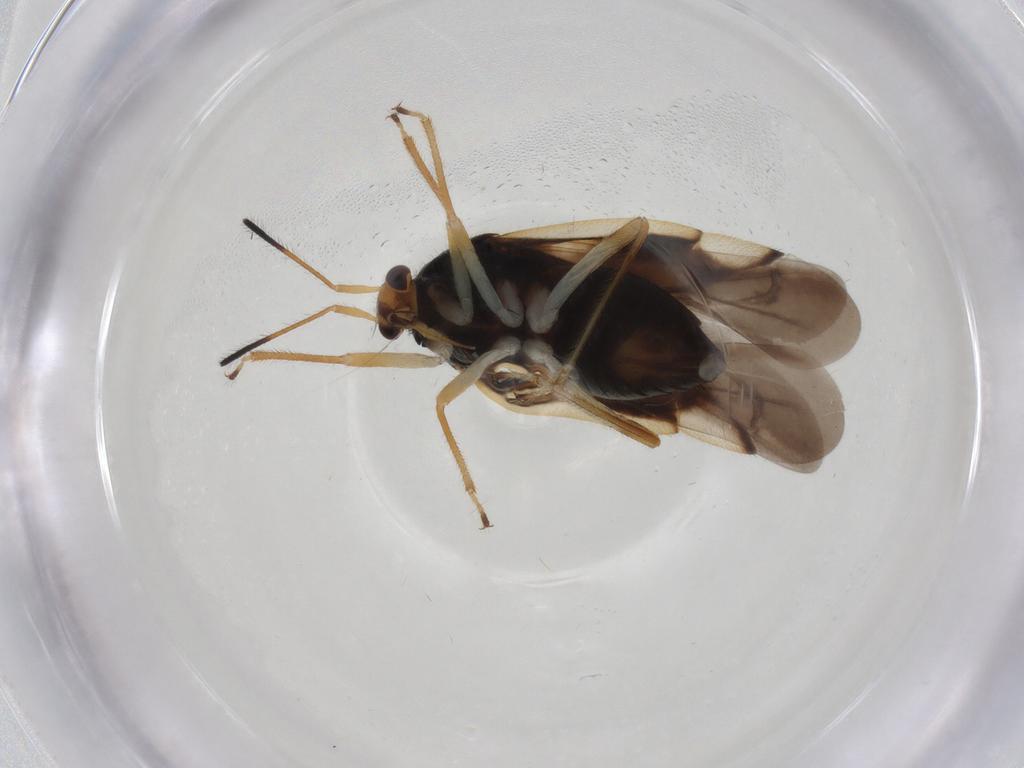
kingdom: Animalia
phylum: Arthropoda
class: Insecta
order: Hemiptera
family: Miridae
